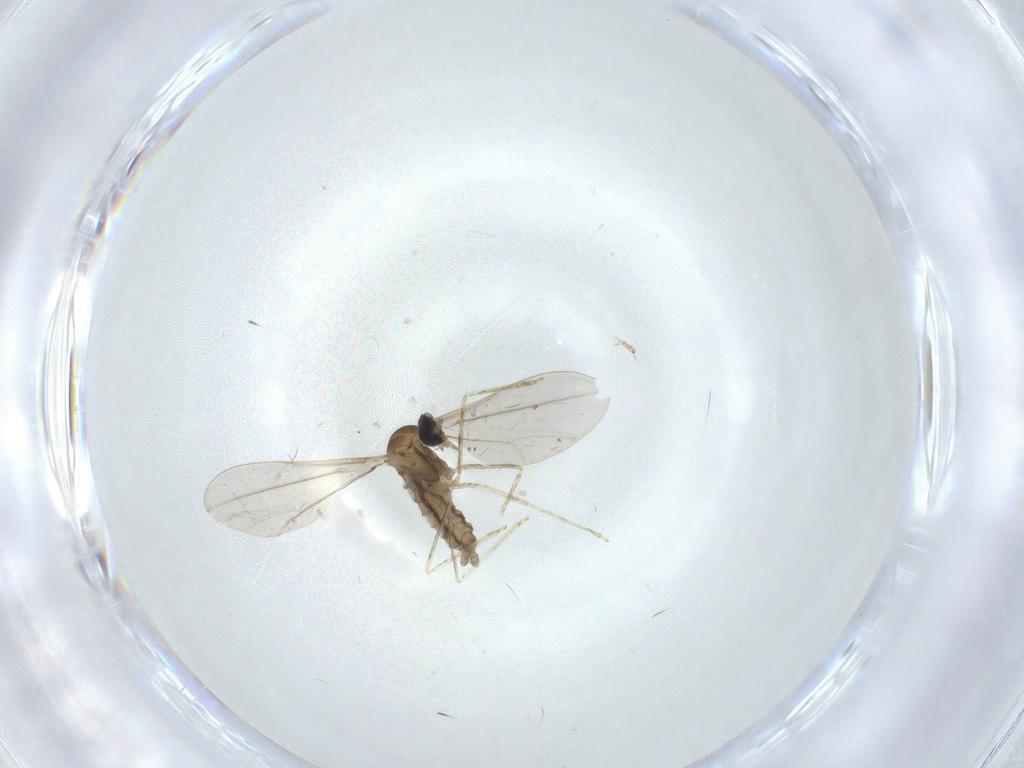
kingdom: Animalia
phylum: Arthropoda
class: Insecta
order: Diptera
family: Cecidomyiidae
